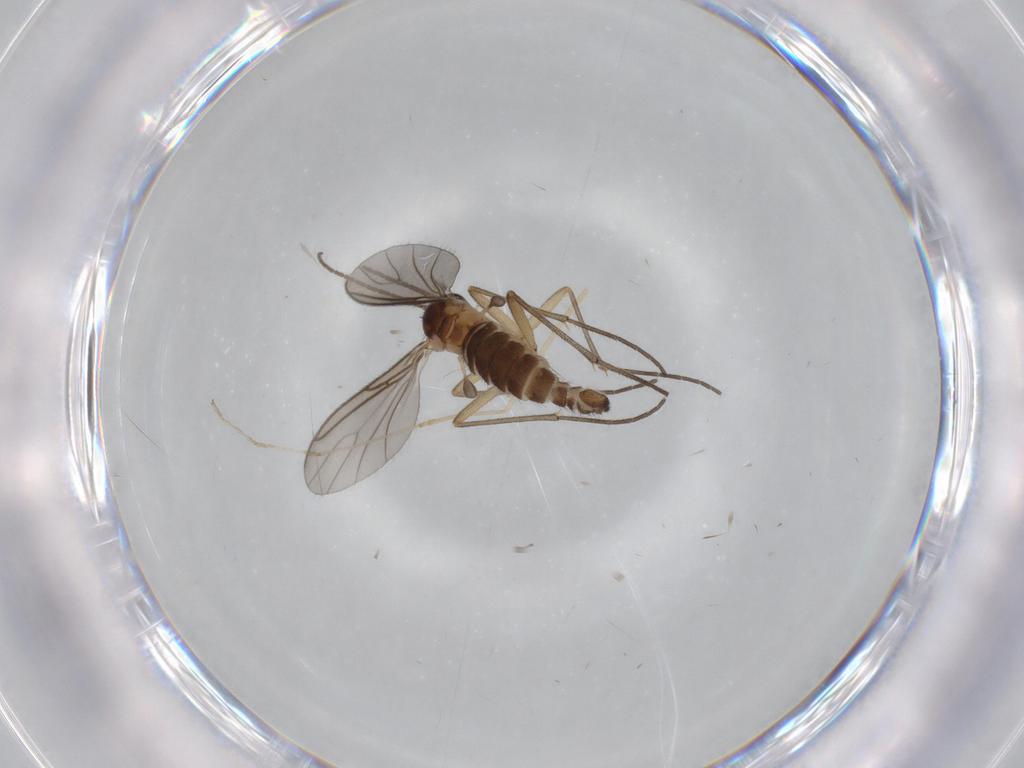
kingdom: Animalia
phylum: Arthropoda
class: Insecta
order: Diptera
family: Sciaridae
